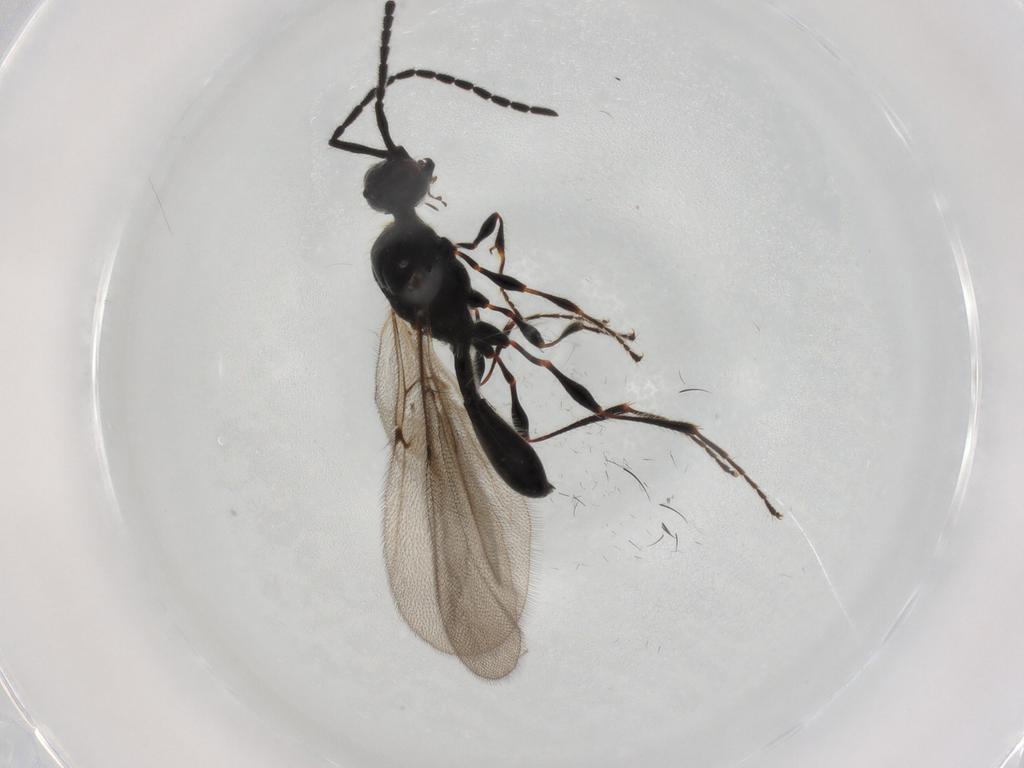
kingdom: Animalia
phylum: Arthropoda
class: Insecta
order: Hymenoptera
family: Diapriidae
